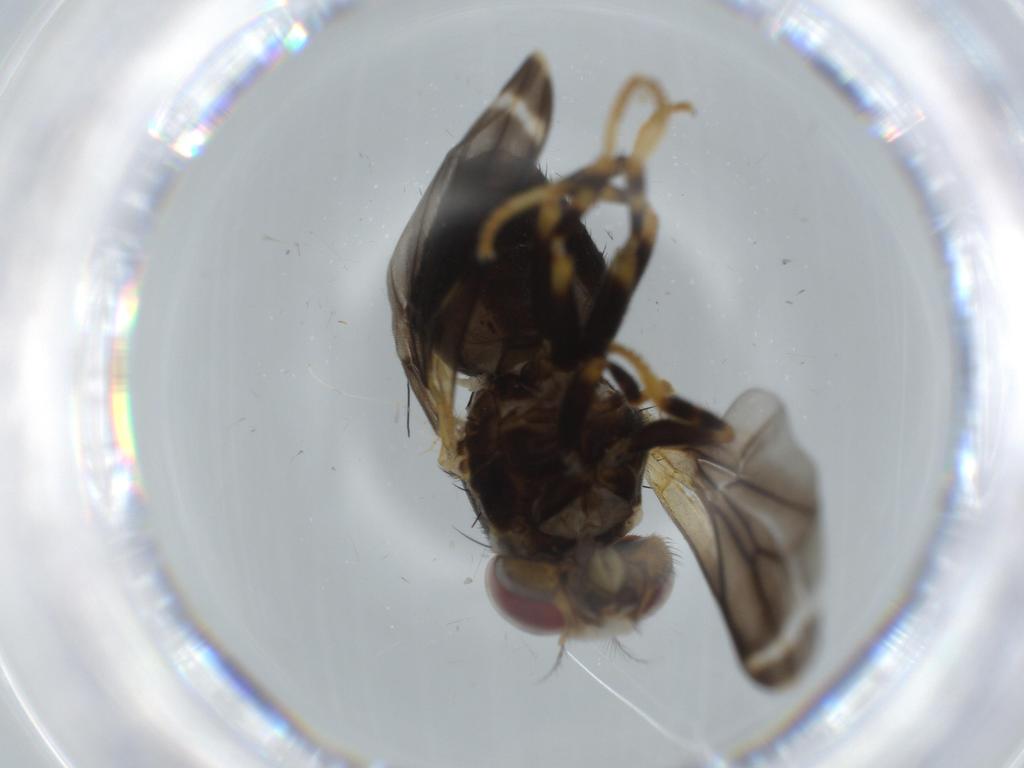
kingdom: Animalia
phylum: Arthropoda
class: Insecta
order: Diptera
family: Periscelididae
